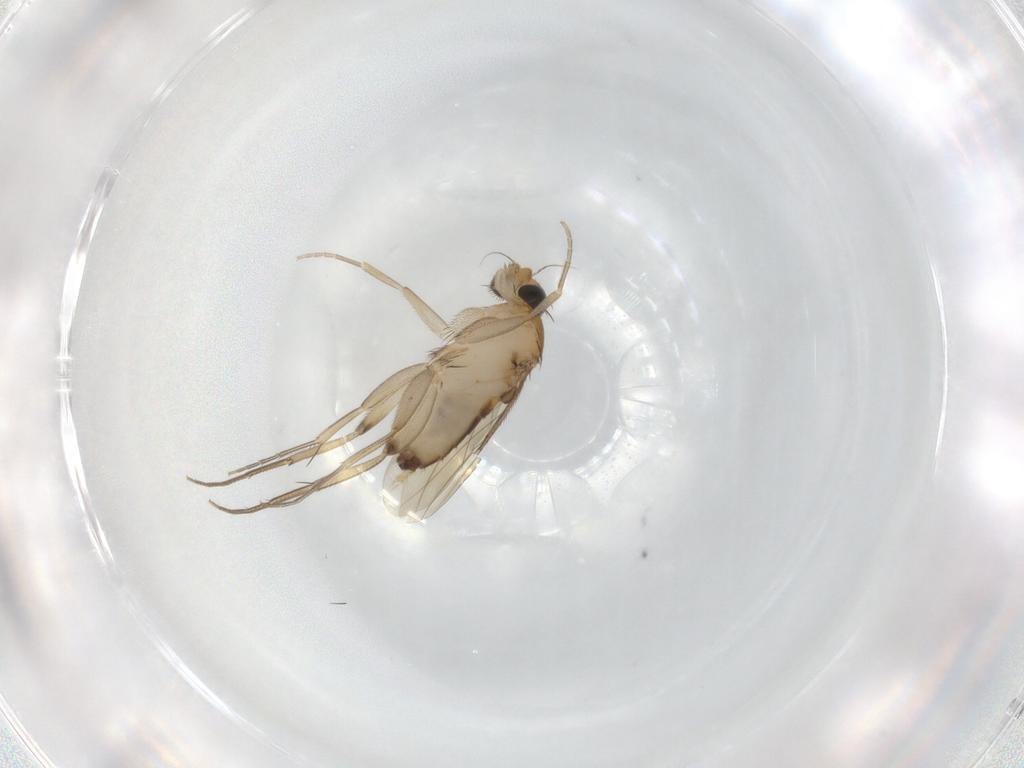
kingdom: Animalia
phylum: Arthropoda
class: Insecta
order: Diptera
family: Phoridae
